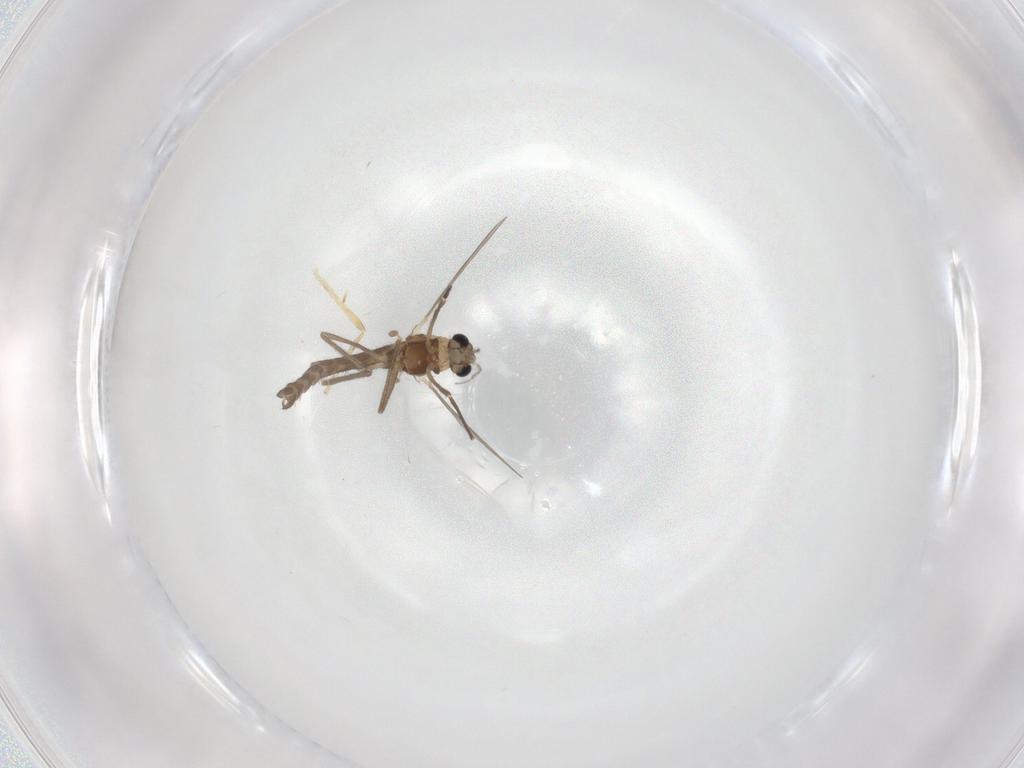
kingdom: Animalia
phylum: Arthropoda
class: Insecta
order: Diptera
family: Chironomidae
